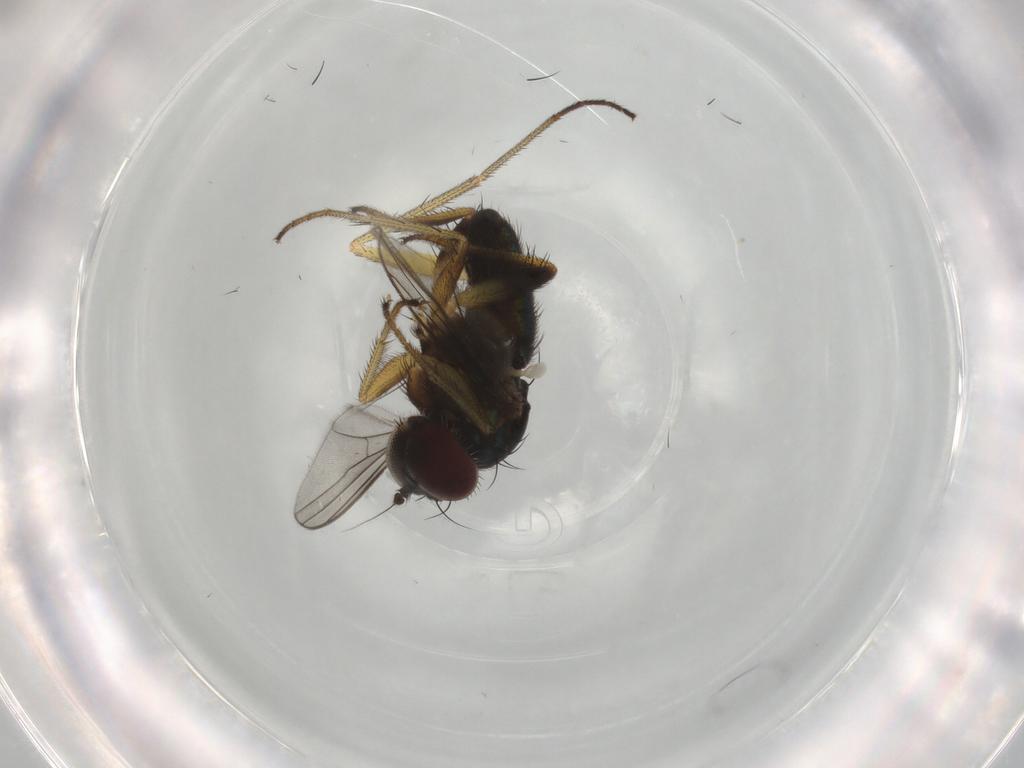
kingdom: Animalia
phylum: Arthropoda
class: Insecta
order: Diptera
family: Dolichopodidae
